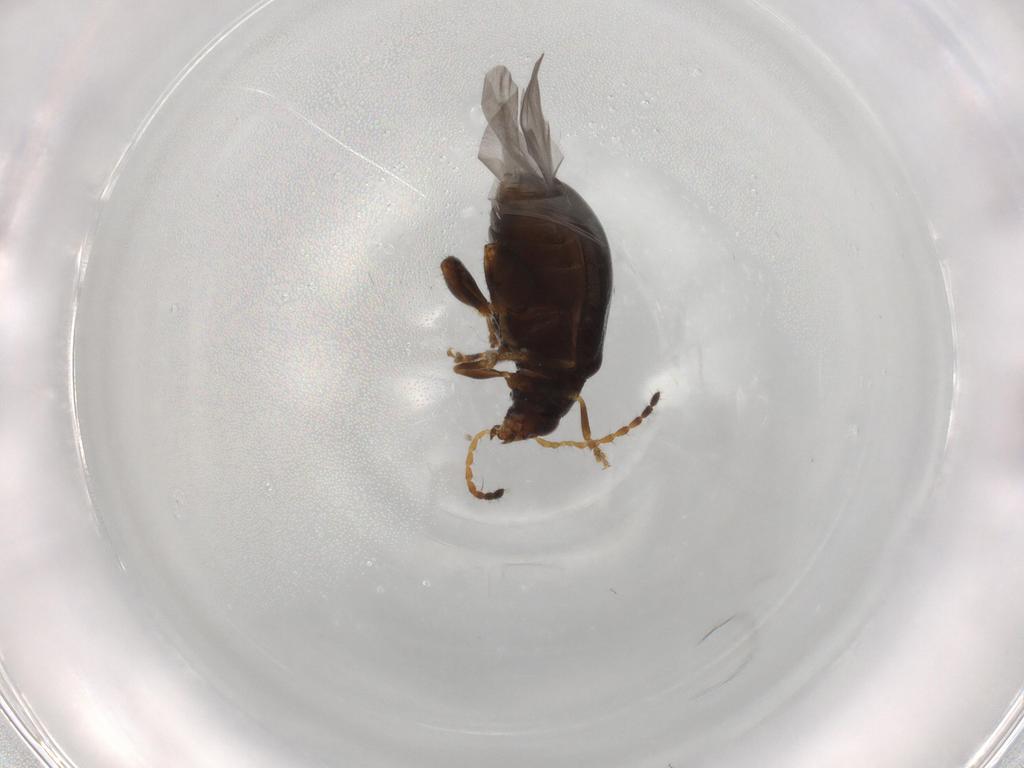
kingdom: Animalia
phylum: Arthropoda
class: Insecta
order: Coleoptera
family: Chrysomelidae
